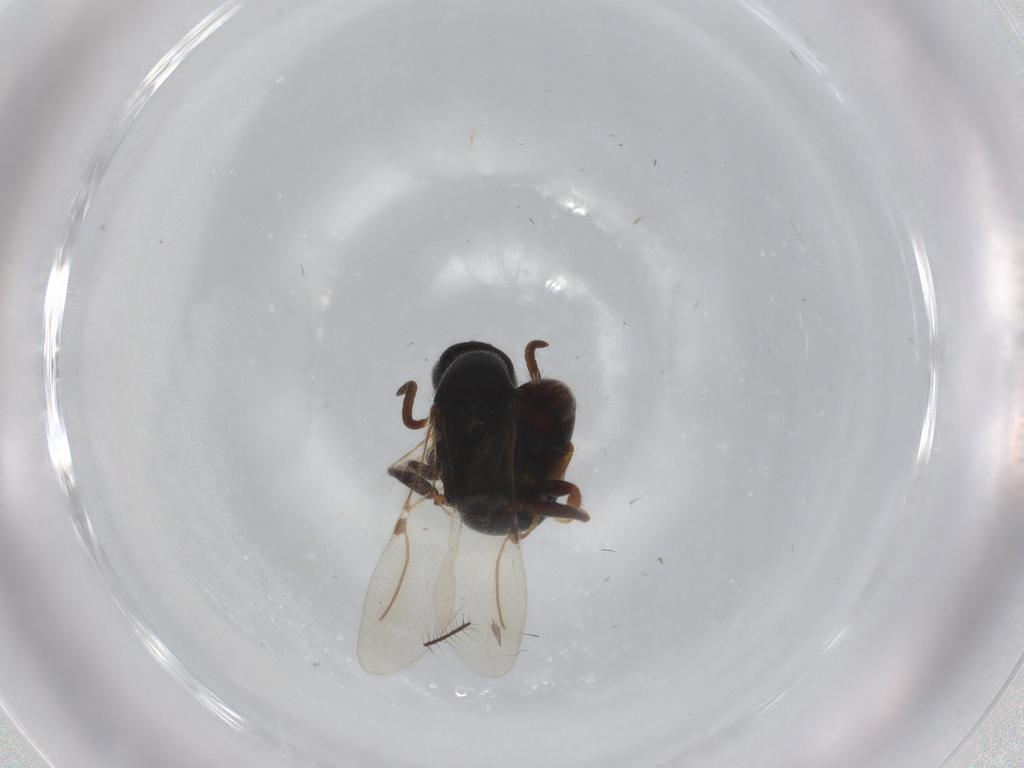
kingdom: Animalia
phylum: Arthropoda
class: Insecta
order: Hymenoptera
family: Bethylidae
